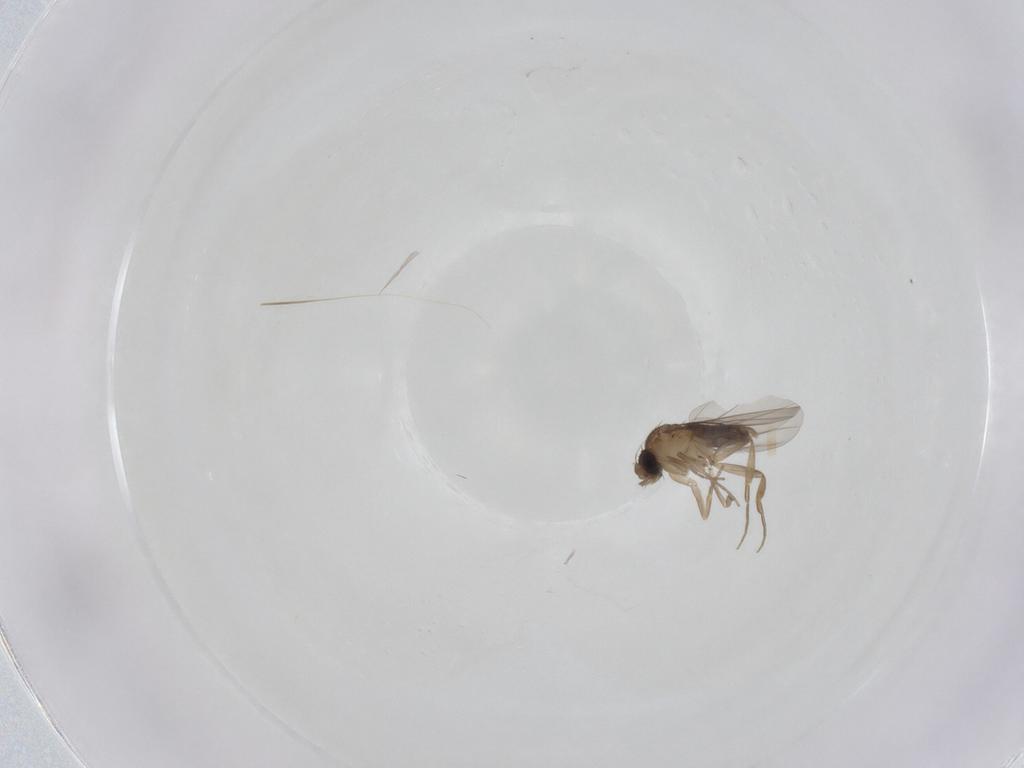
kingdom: Animalia
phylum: Arthropoda
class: Insecta
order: Diptera
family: Phoridae
